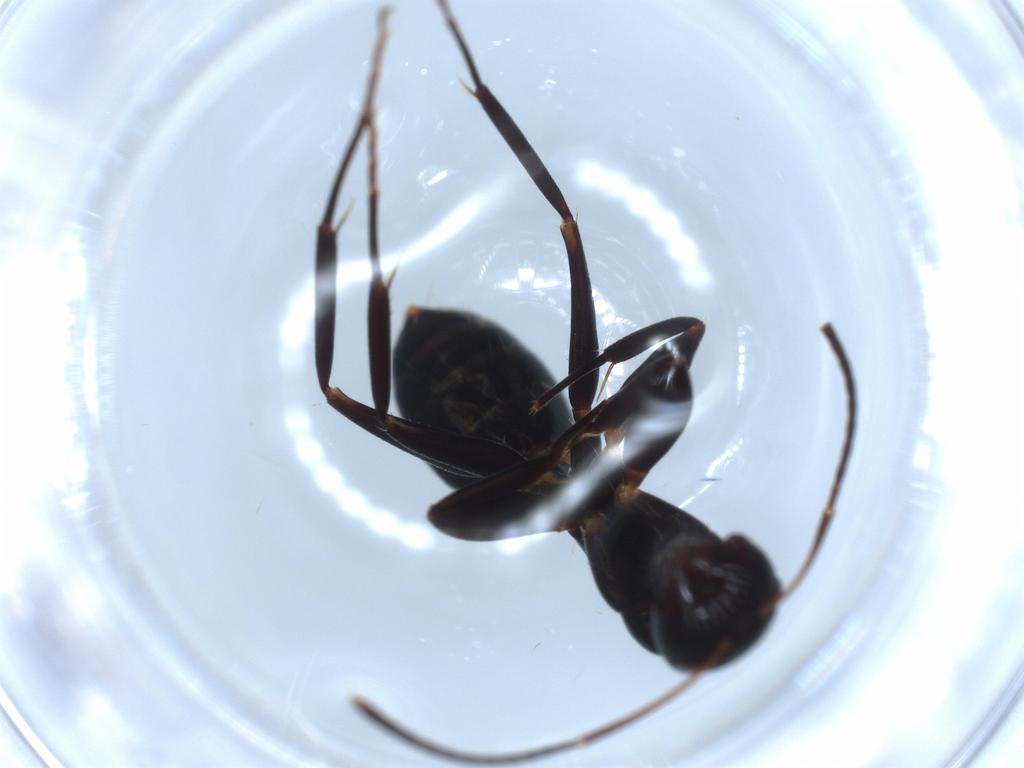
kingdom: Animalia
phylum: Arthropoda
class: Insecta
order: Hymenoptera
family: Formicidae
